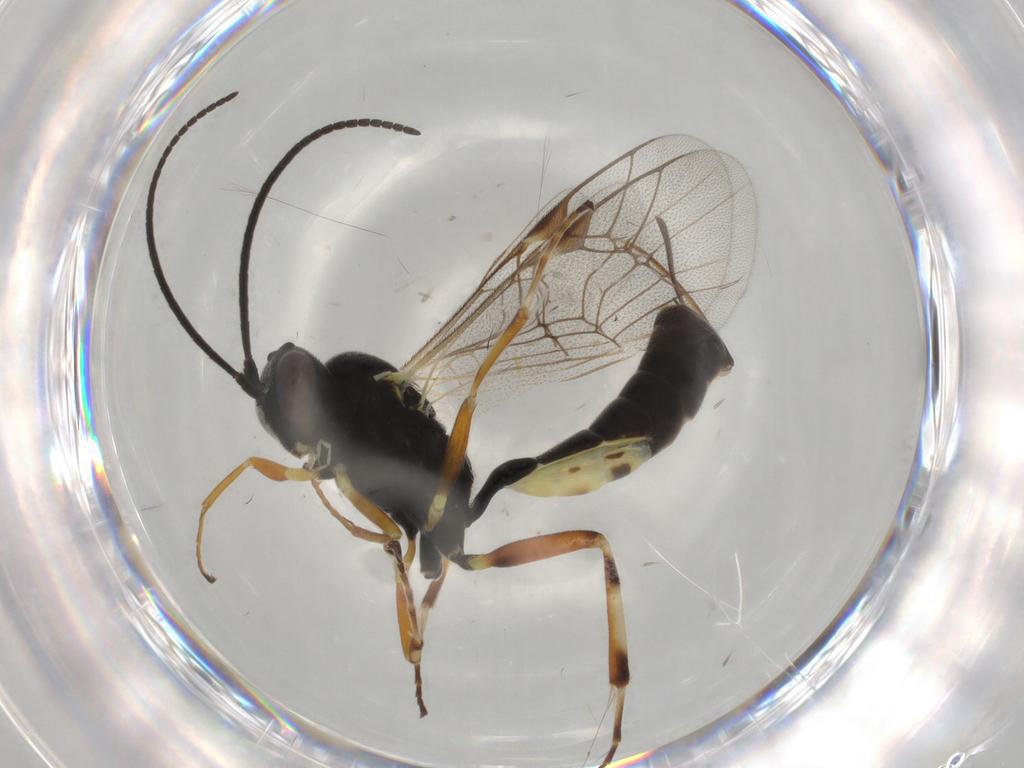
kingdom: Animalia
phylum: Arthropoda
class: Insecta
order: Hymenoptera
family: Ichneumonidae
